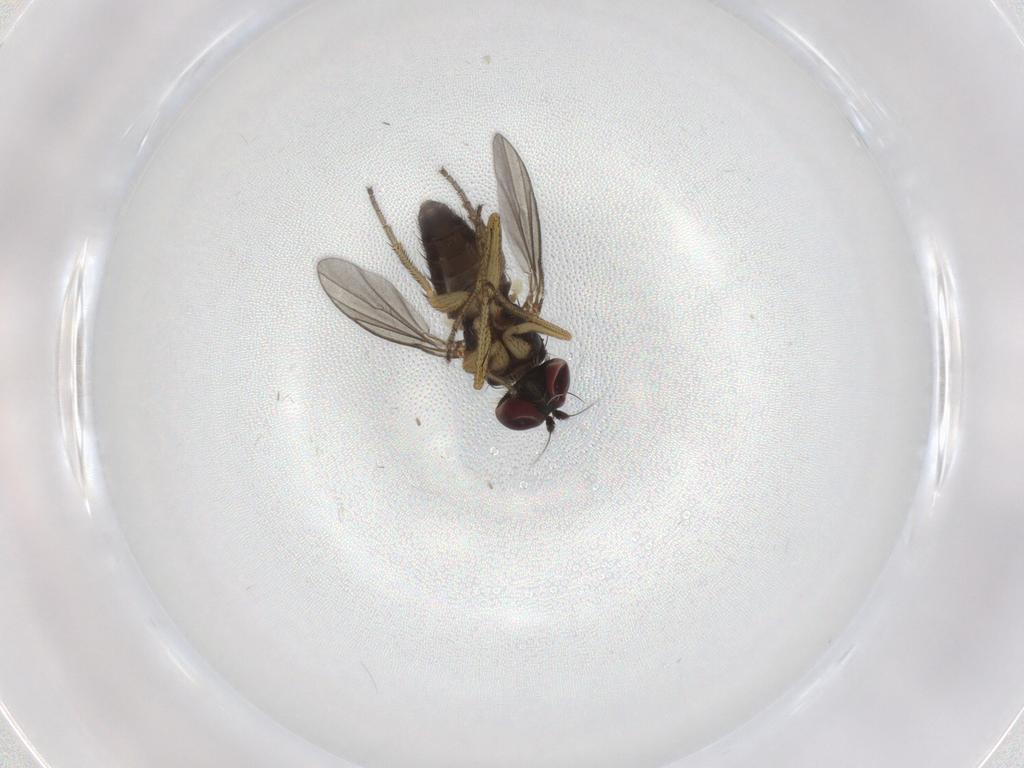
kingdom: Animalia
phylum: Arthropoda
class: Insecta
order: Diptera
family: Dolichopodidae
